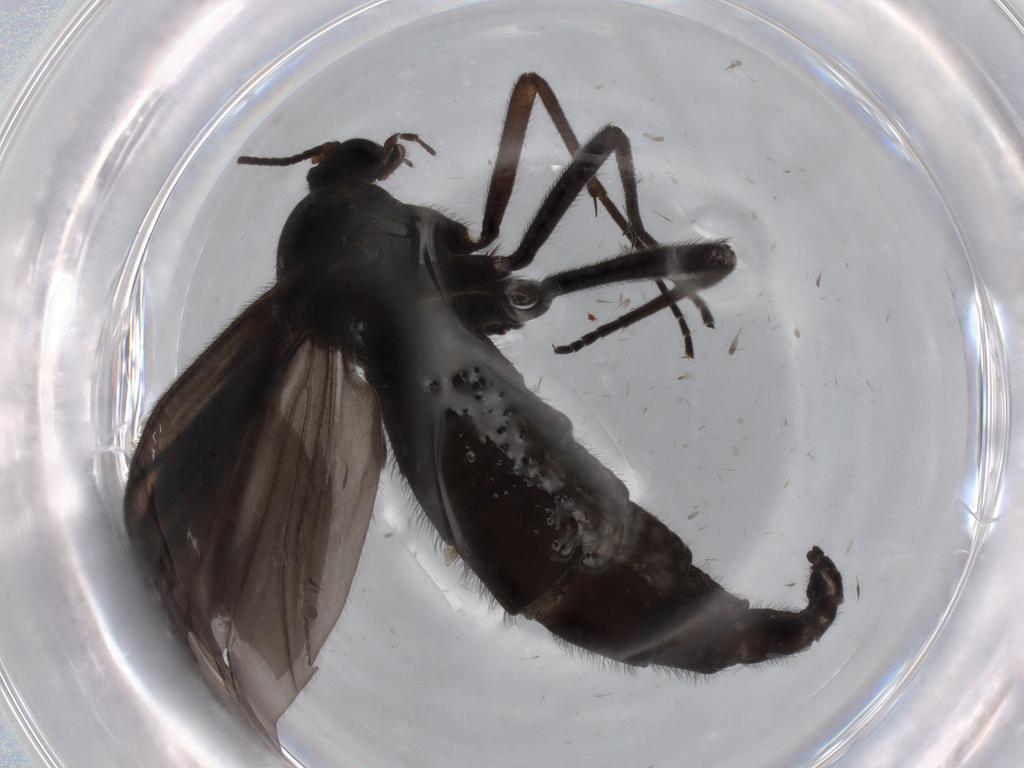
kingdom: Animalia
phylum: Arthropoda
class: Insecta
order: Diptera
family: Sciaridae
